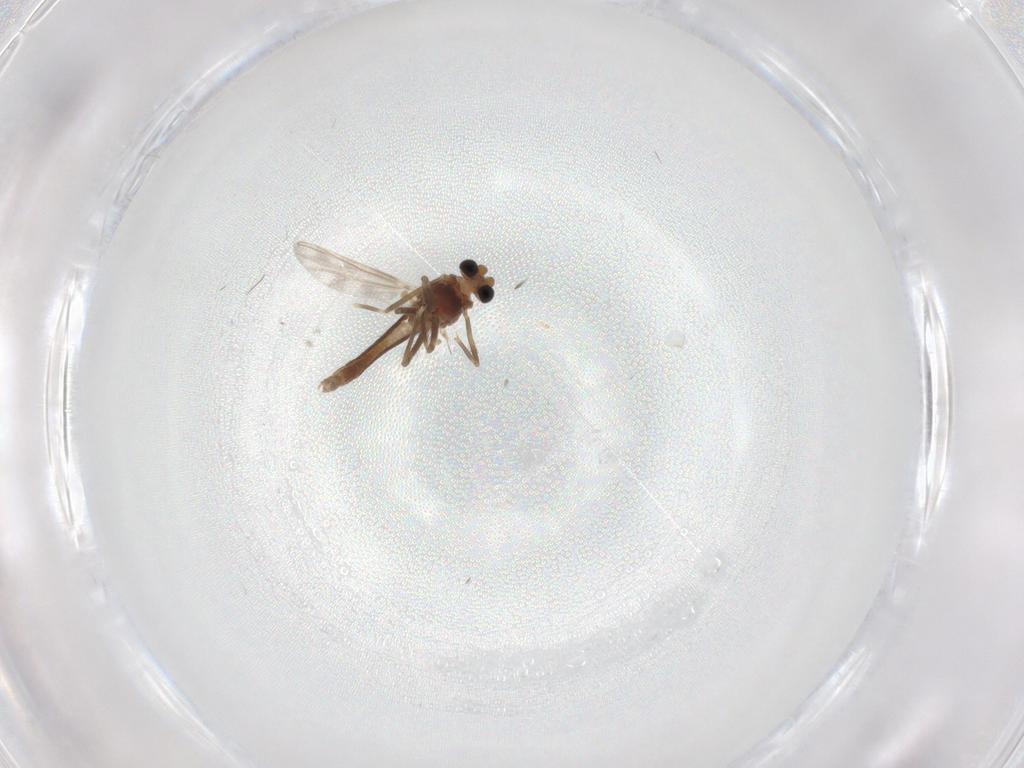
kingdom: Animalia
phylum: Arthropoda
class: Insecta
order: Diptera
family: Chironomidae
